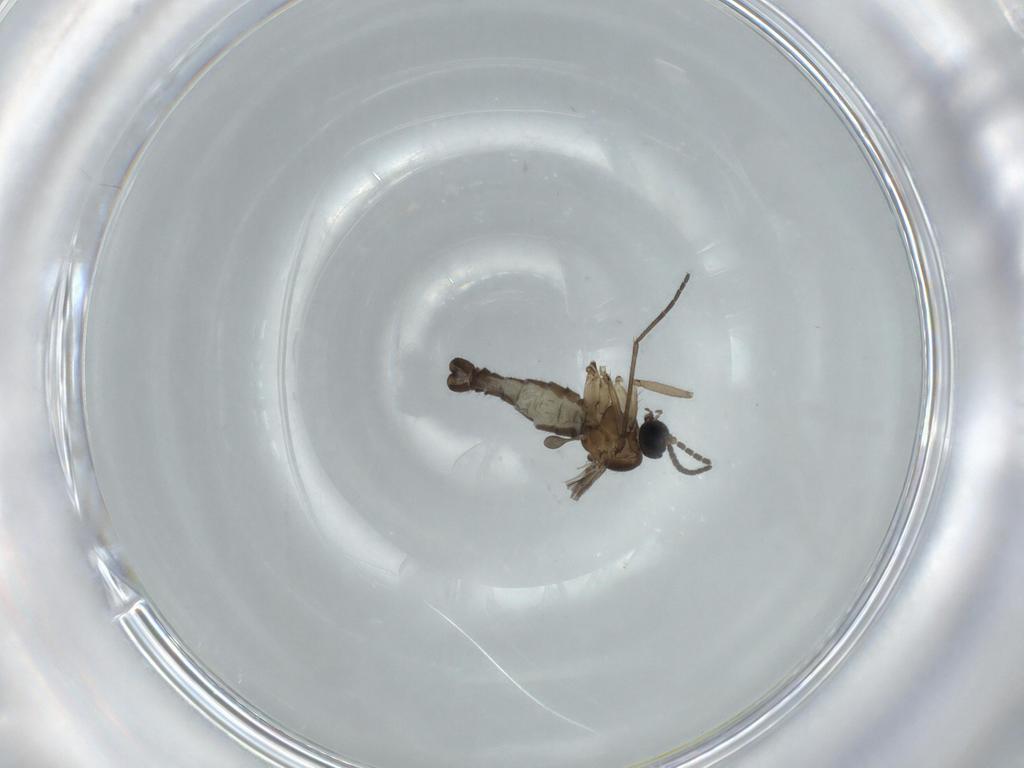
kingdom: Animalia
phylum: Arthropoda
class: Insecta
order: Diptera
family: Sciaridae
